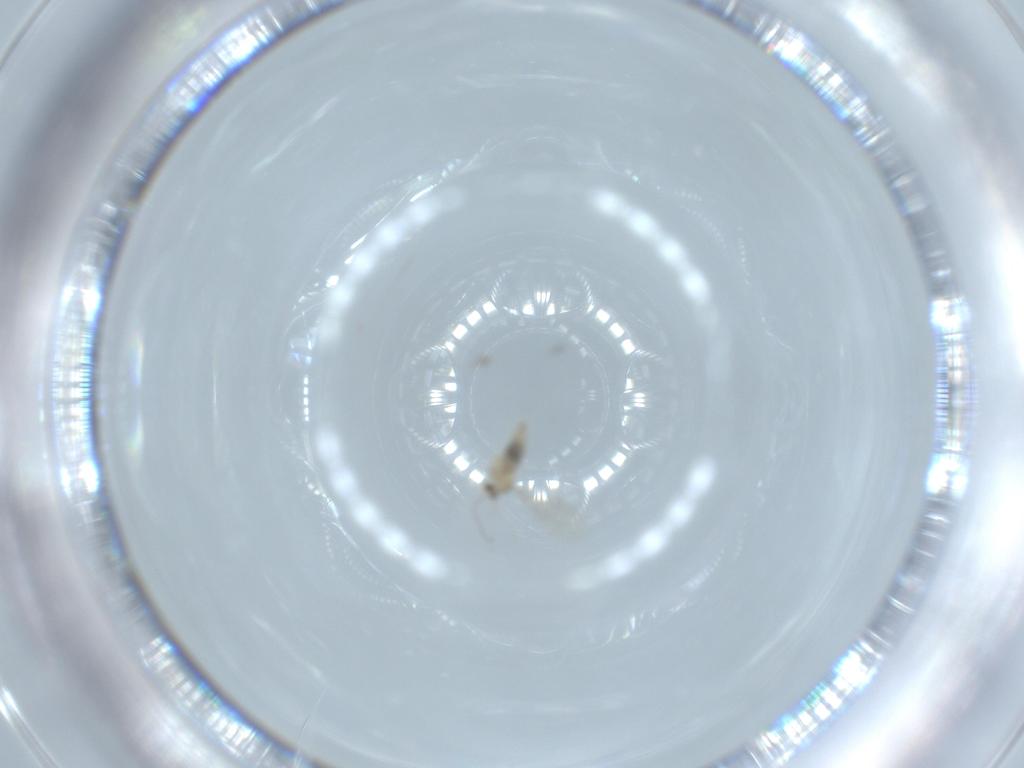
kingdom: Animalia
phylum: Arthropoda
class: Insecta
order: Diptera
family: Cecidomyiidae
